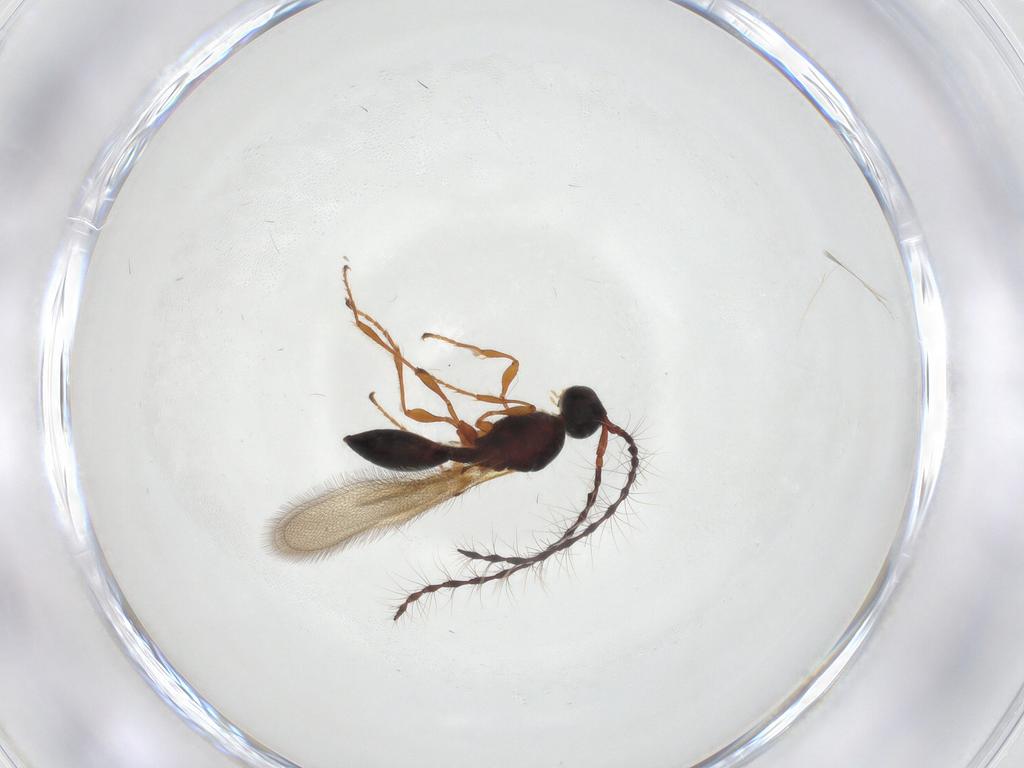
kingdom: Animalia
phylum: Arthropoda
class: Insecta
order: Hymenoptera
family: Diapriidae
